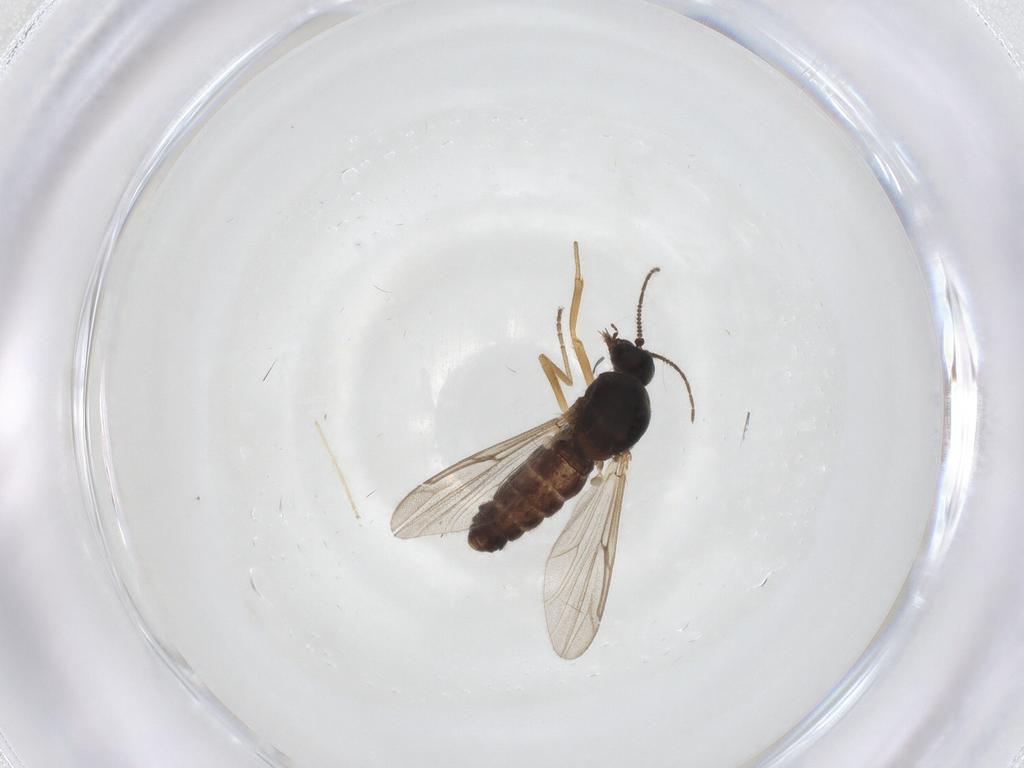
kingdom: Animalia
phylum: Arthropoda
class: Insecta
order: Diptera
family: Ceratopogonidae
